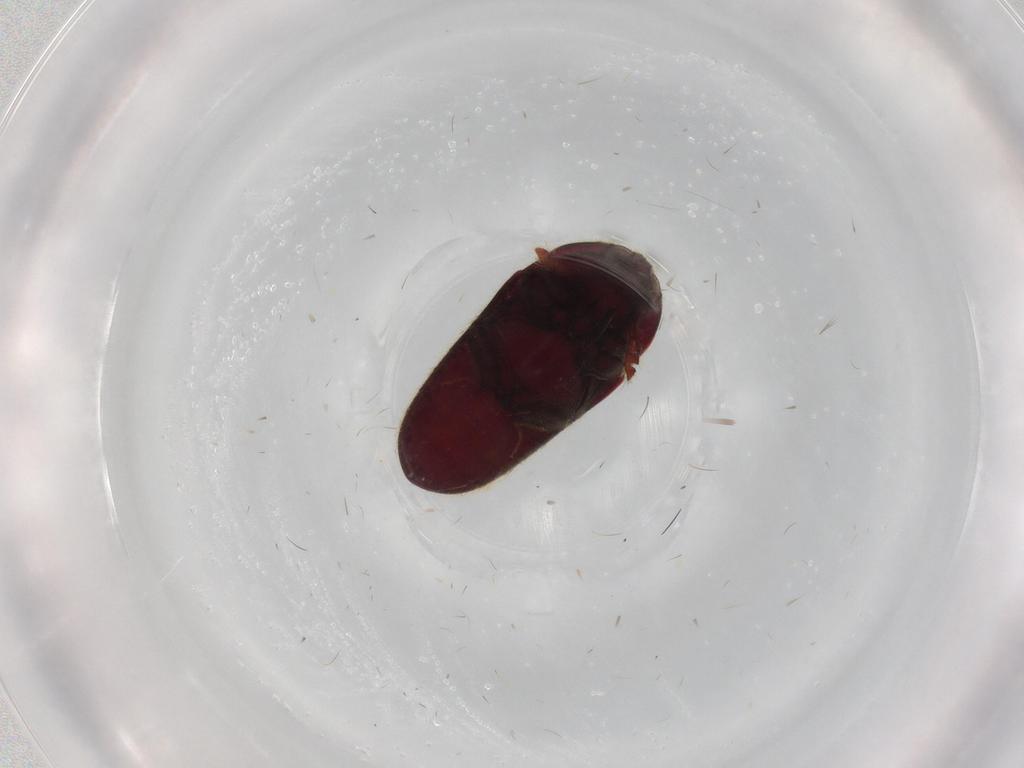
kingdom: Animalia
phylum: Arthropoda
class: Insecta
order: Coleoptera
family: Throscidae
